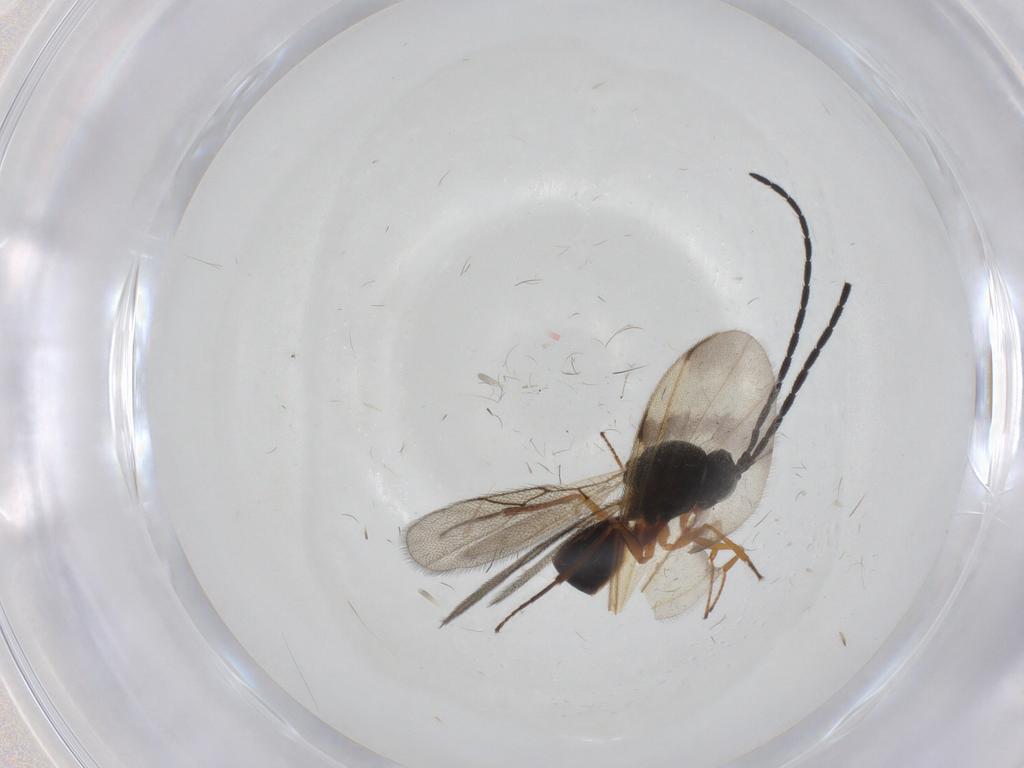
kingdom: Animalia
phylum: Arthropoda
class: Insecta
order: Hymenoptera
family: Figitidae
